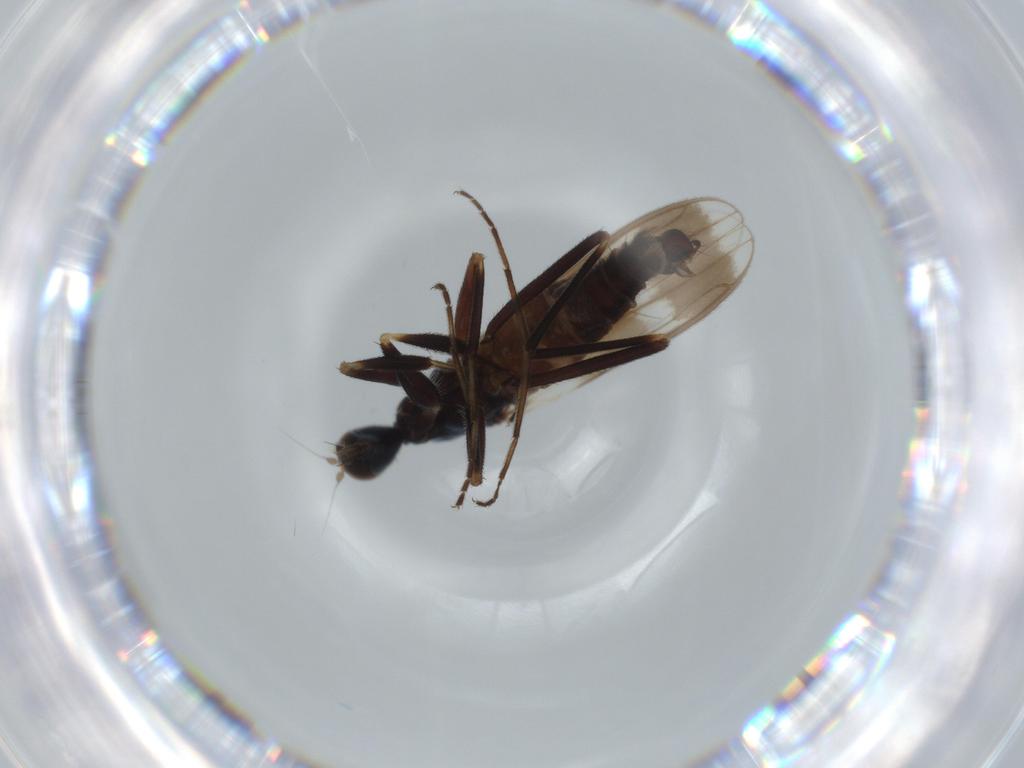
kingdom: Animalia
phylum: Arthropoda
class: Insecta
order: Diptera
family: Hybotidae
